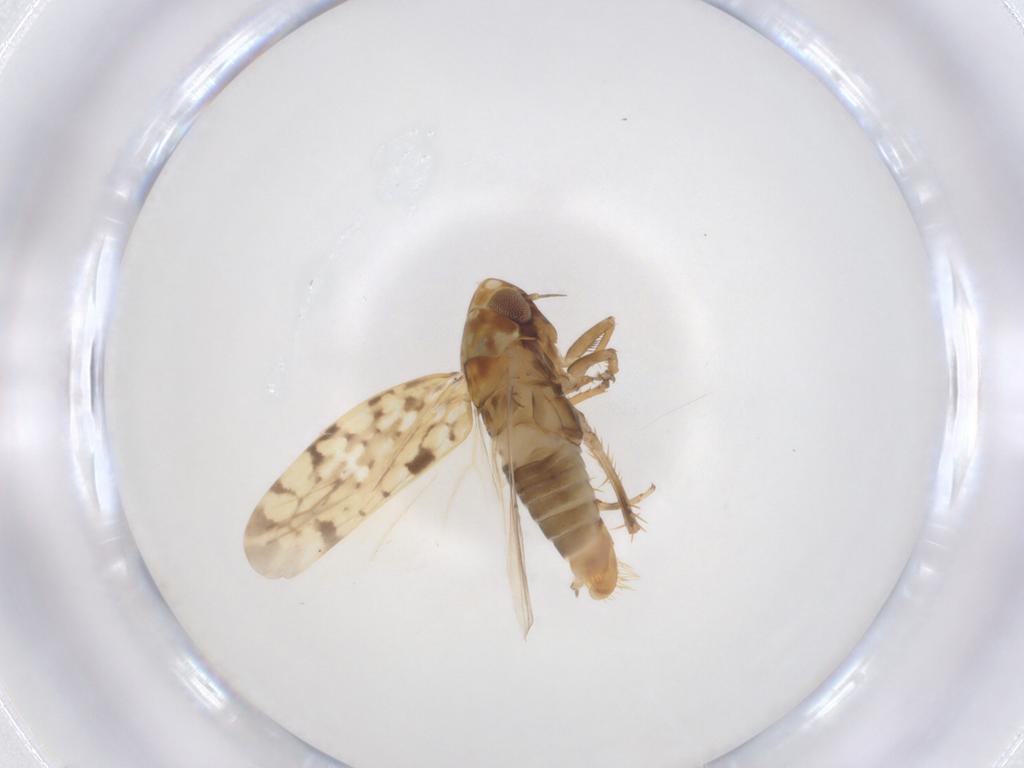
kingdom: Animalia
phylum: Arthropoda
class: Insecta
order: Hemiptera
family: Cicadellidae
